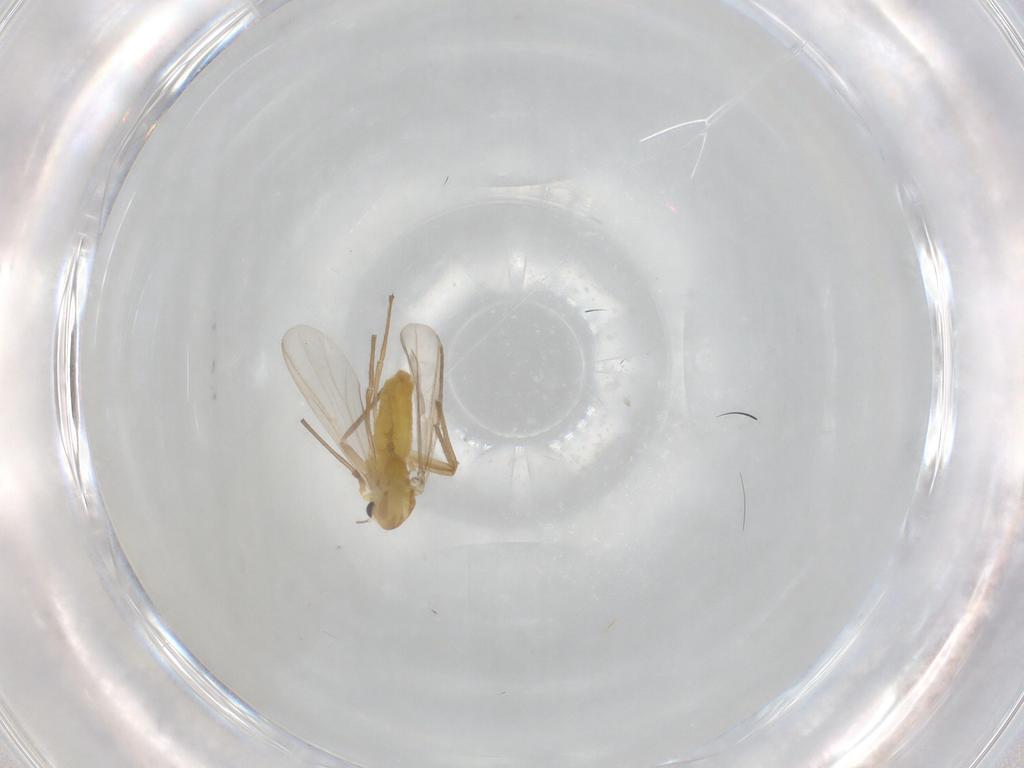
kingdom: Animalia
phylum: Arthropoda
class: Insecta
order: Diptera
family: Chironomidae
